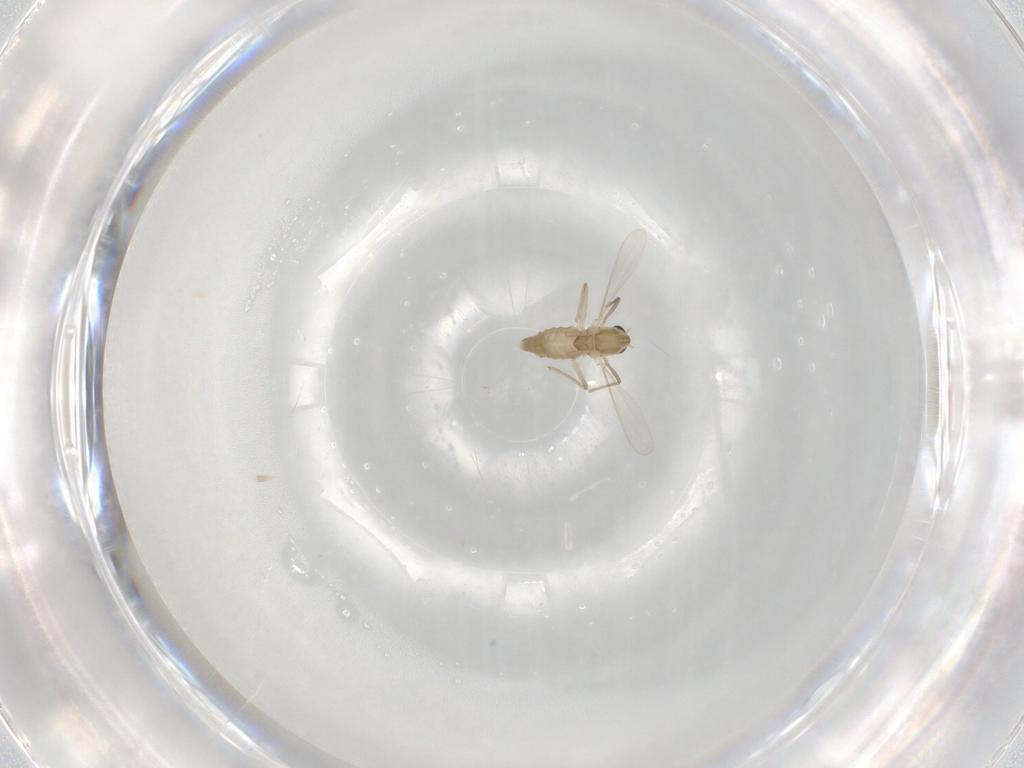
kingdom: Animalia
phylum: Arthropoda
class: Insecta
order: Diptera
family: Chironomidae
